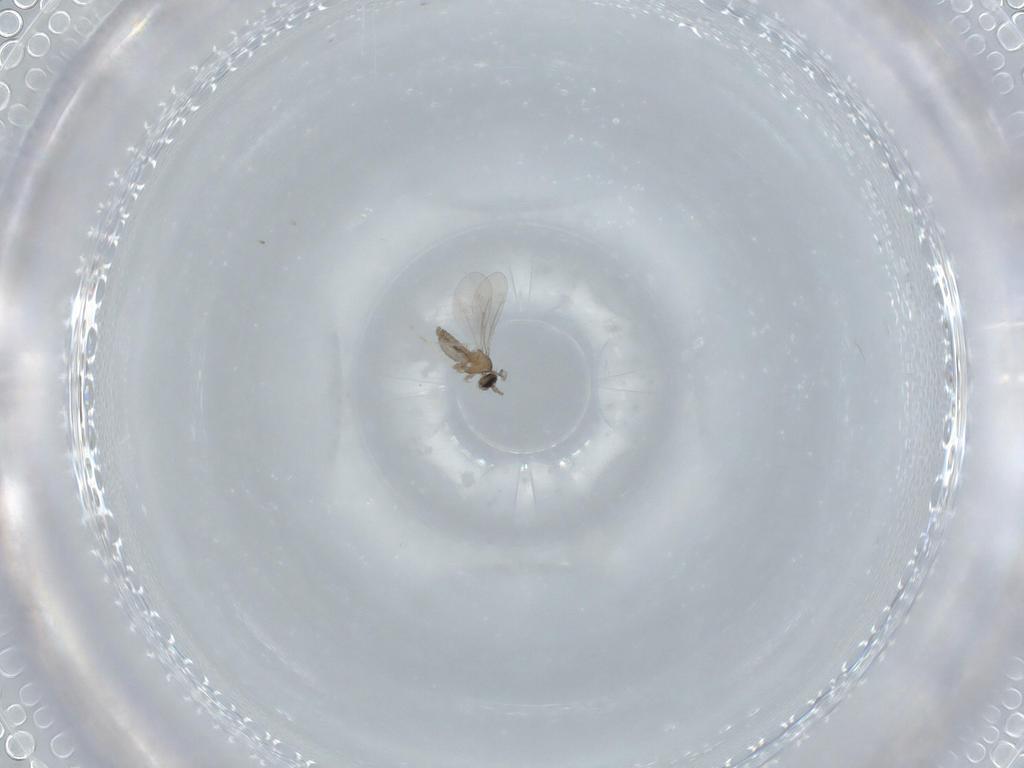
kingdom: Animalia
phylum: Arthropoda
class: Insecta
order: Diptera
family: Cecidomyiidae
